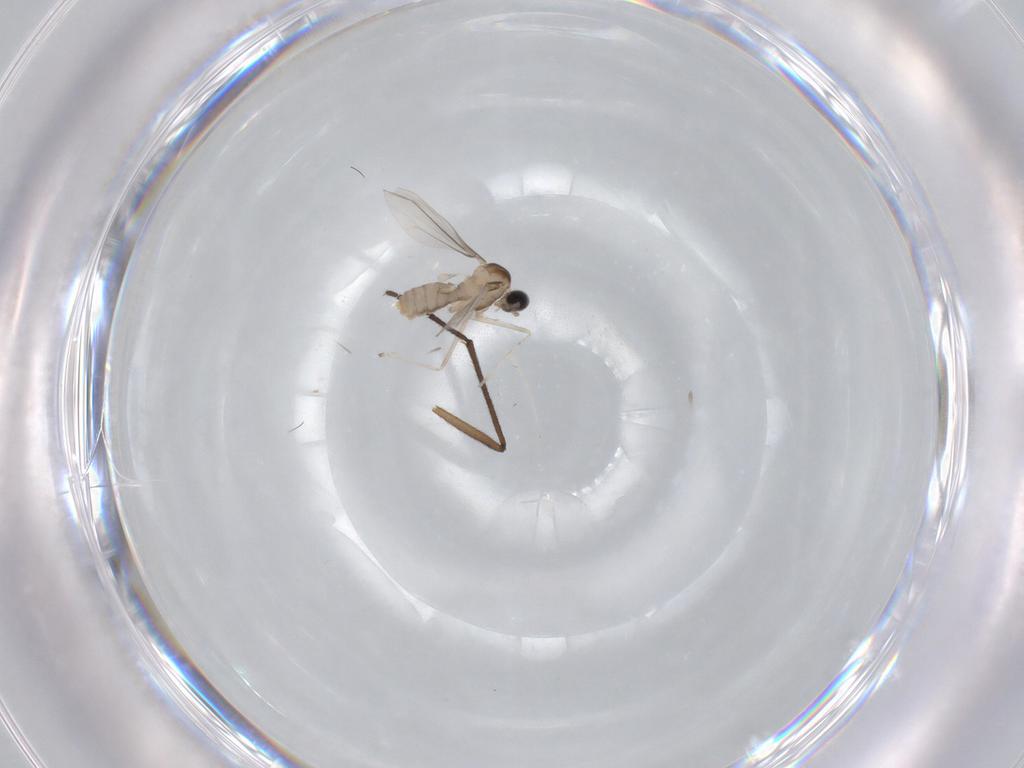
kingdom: Animalia
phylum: Arthropoda
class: Insecta
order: Diptera
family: Cecidomyiidae
